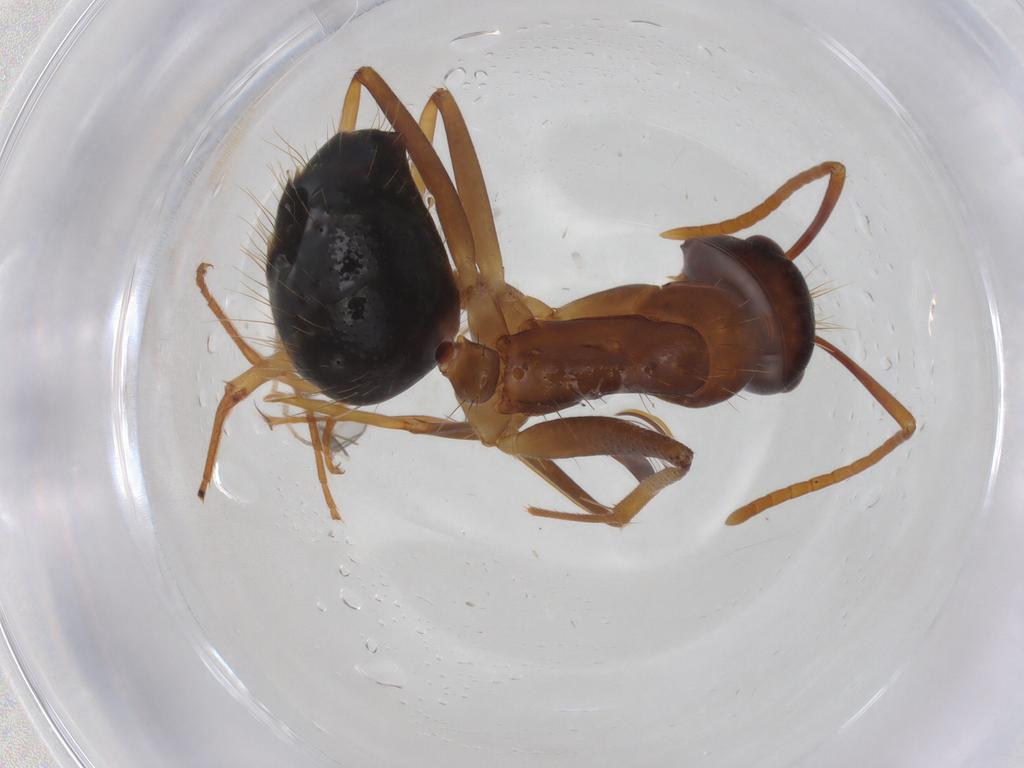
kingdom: Animalia
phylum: Arthropoda
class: Insecta
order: Hymenoptera
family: Formicidae
